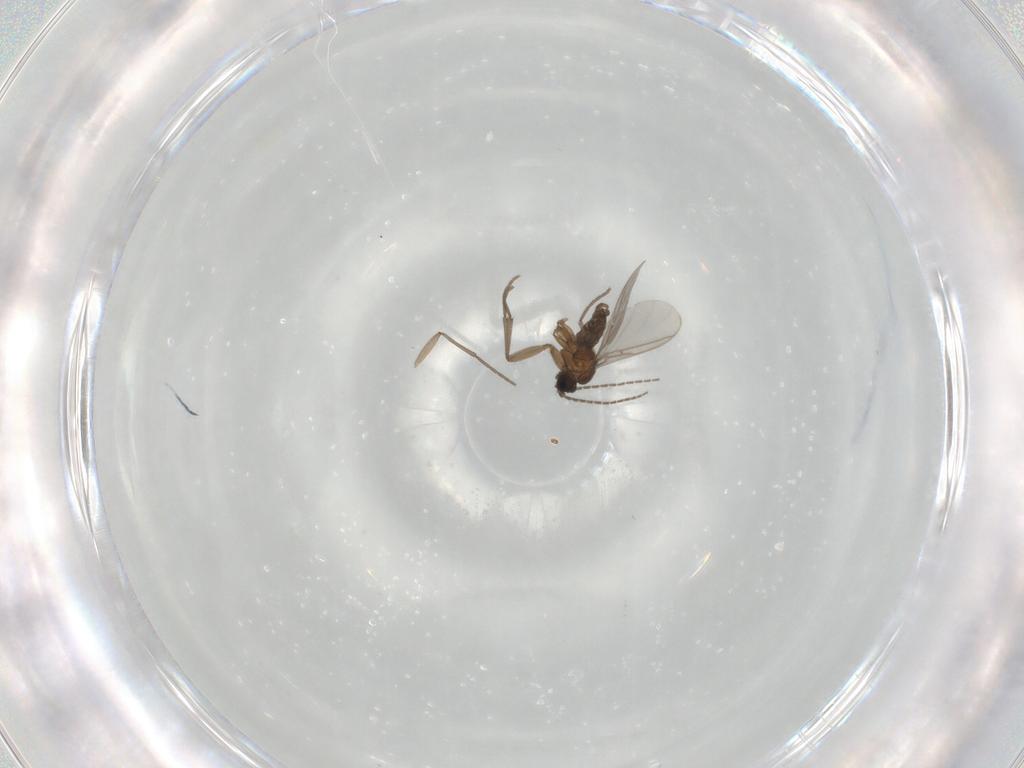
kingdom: Animalia
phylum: Arthropoda
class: Insecta
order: Diptera
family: Sciaridae
